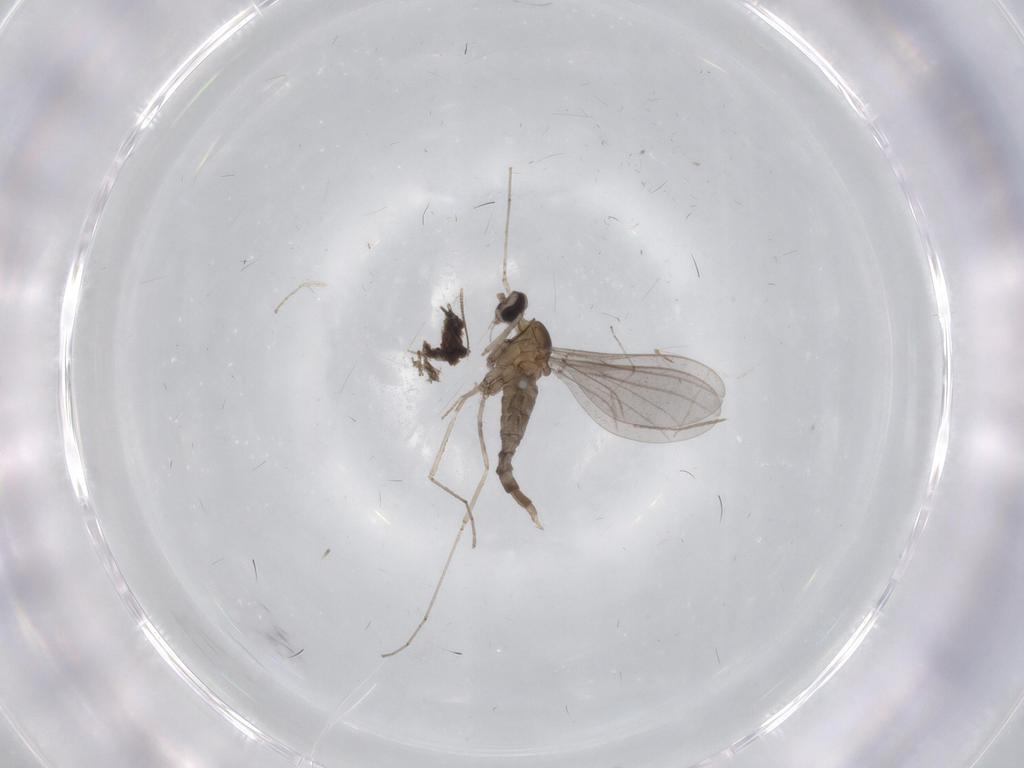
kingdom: Animalia
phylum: Arthropoda
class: Insecta
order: Diptera
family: Cecidomyiidae
